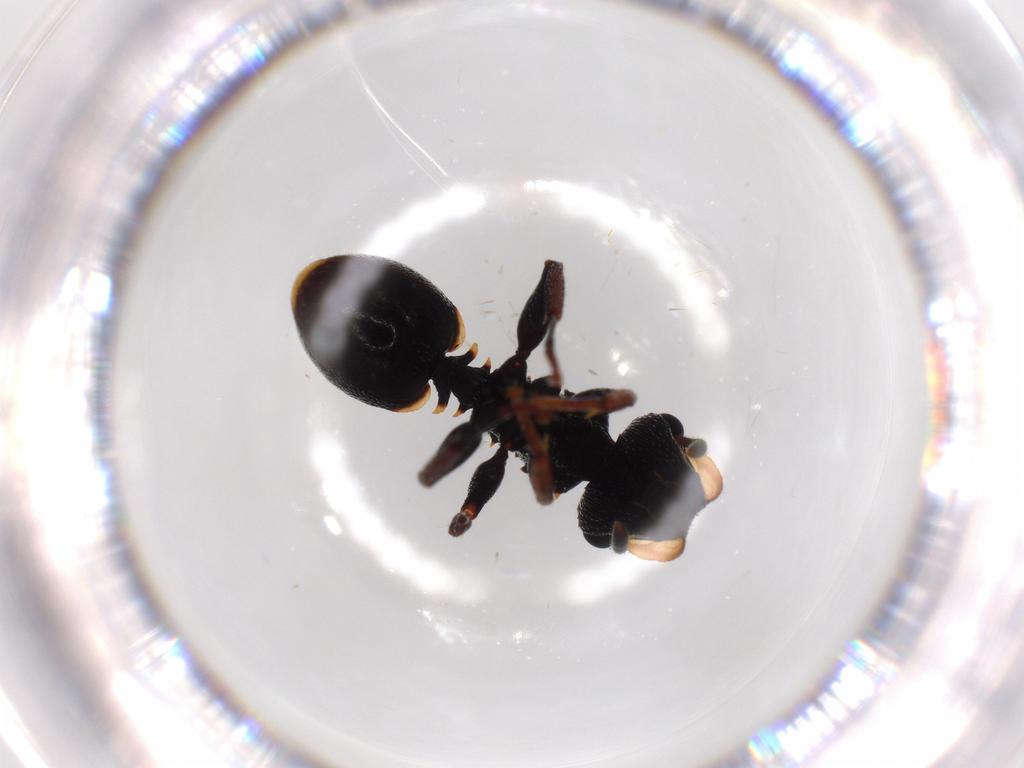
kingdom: Animalia
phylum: Arthropoda
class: Insecta
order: Hymenoptera
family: Formicidae
